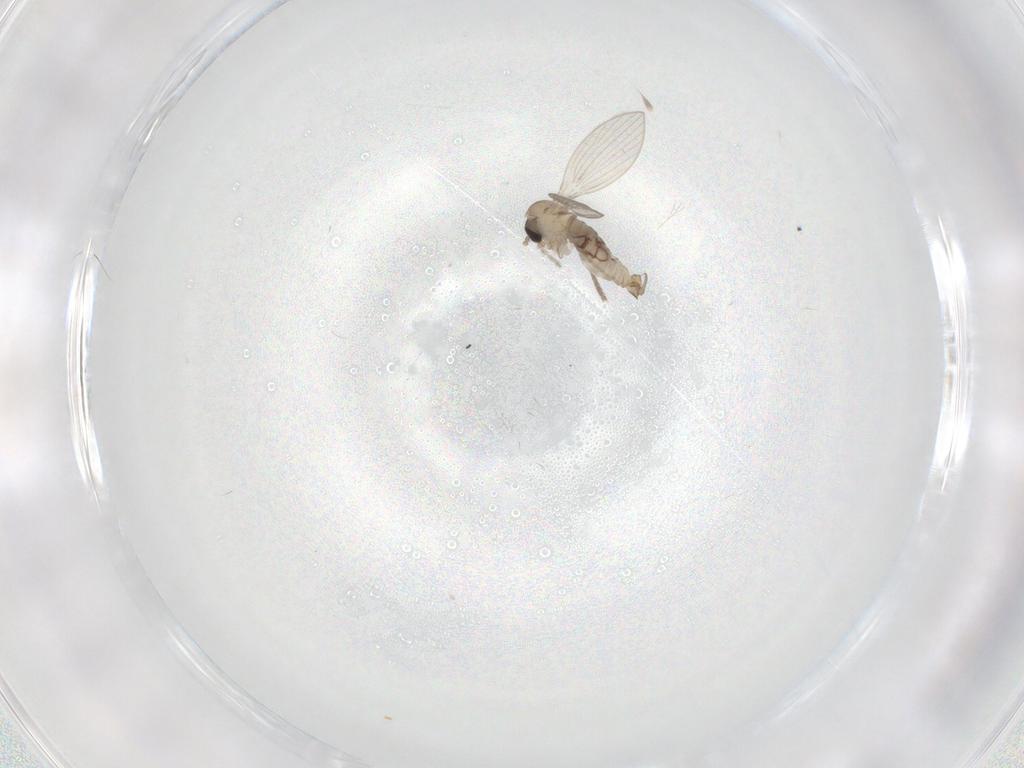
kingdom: Animalia
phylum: Arthropoda
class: Insecta
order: Diptera
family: Psychodidae
